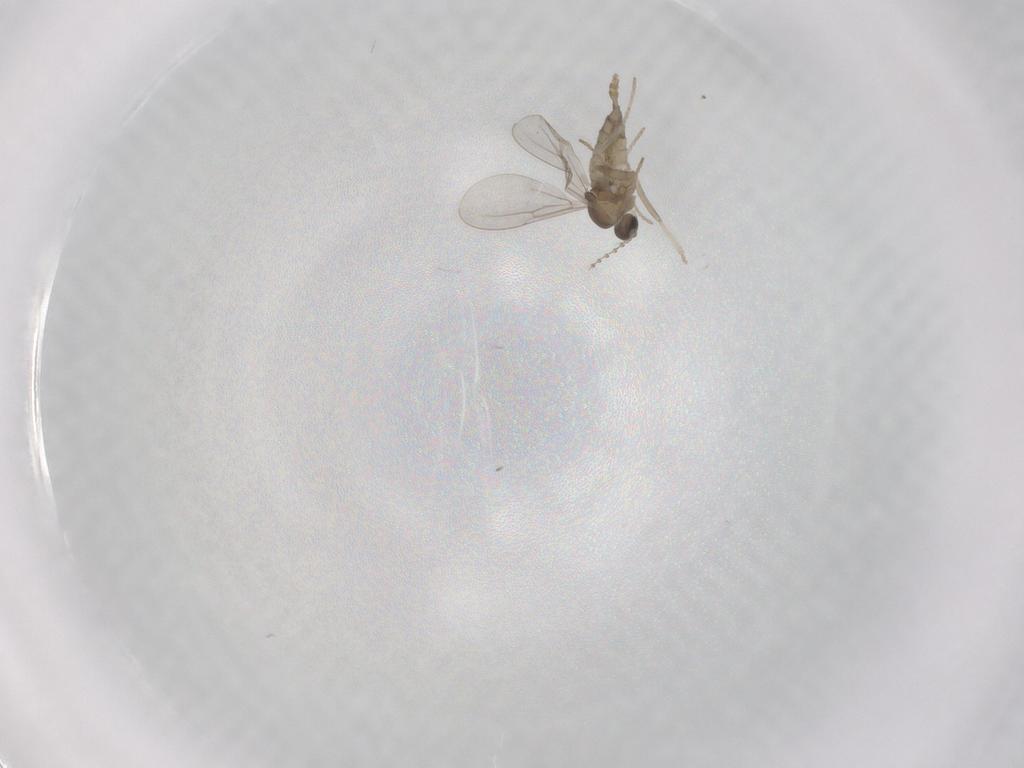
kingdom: Animalia
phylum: Arthropoda
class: Insecta
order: Diptera
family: Cecidomyiidae
